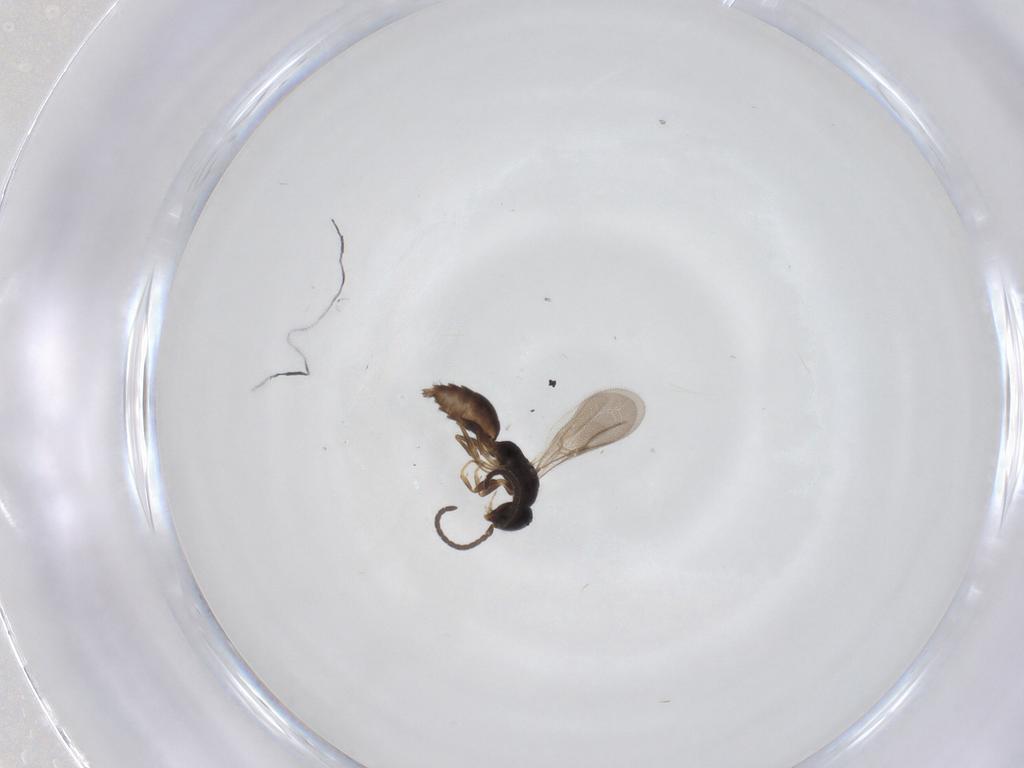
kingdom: Animalia
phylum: Arthropoda
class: Insecta
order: Hymenoptera
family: Bethylidae
